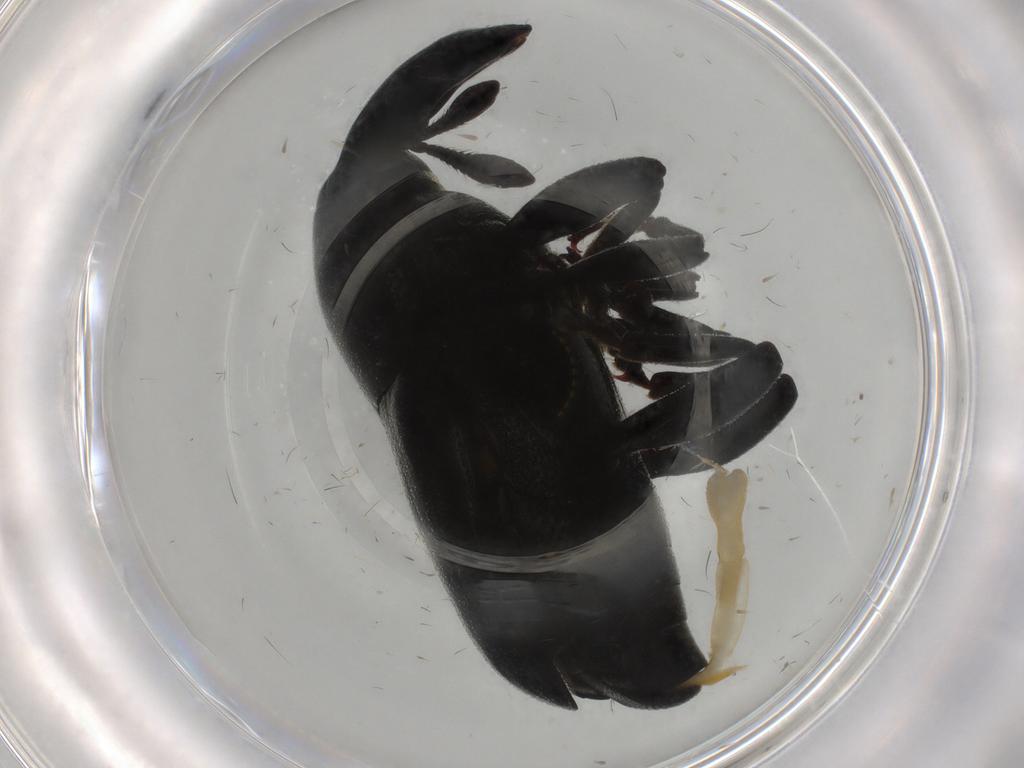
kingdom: Animalia
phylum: Arthropoda
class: Insecta
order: Coleoptera
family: Curculionidae
